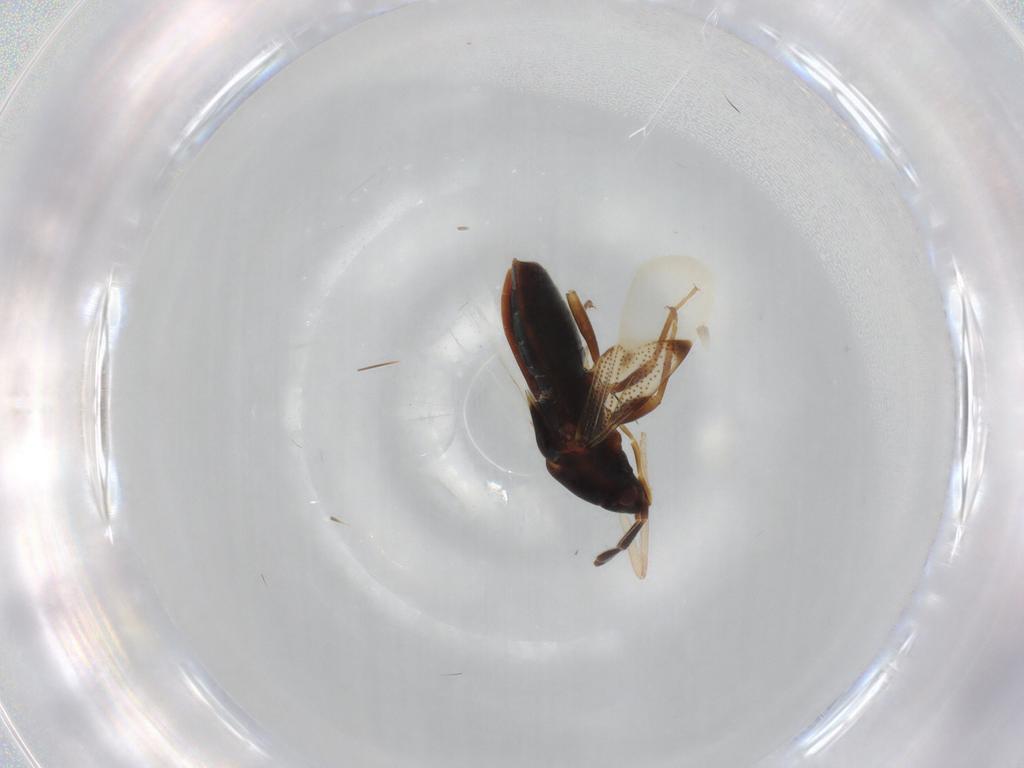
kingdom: Animalia
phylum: Arthropoda
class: Insecta
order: Hemiptera
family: Rhyparochromidae
